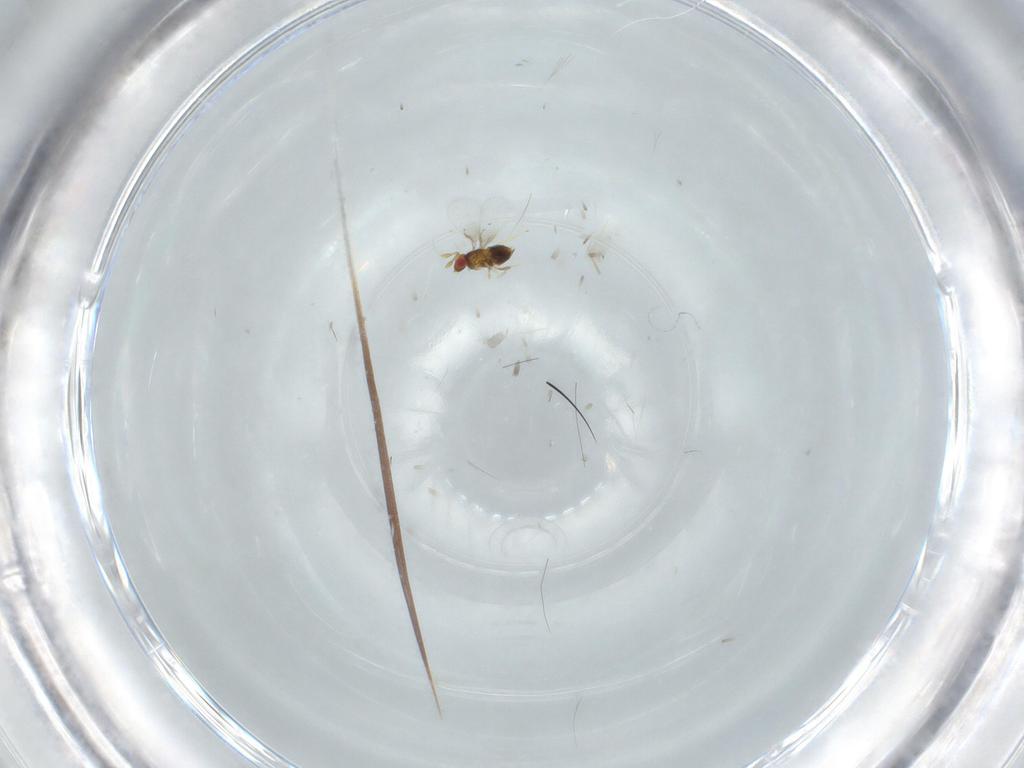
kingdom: Animalia
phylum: Arthropoda
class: Insecta
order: Hymenoptera
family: Trichogrammatidae
